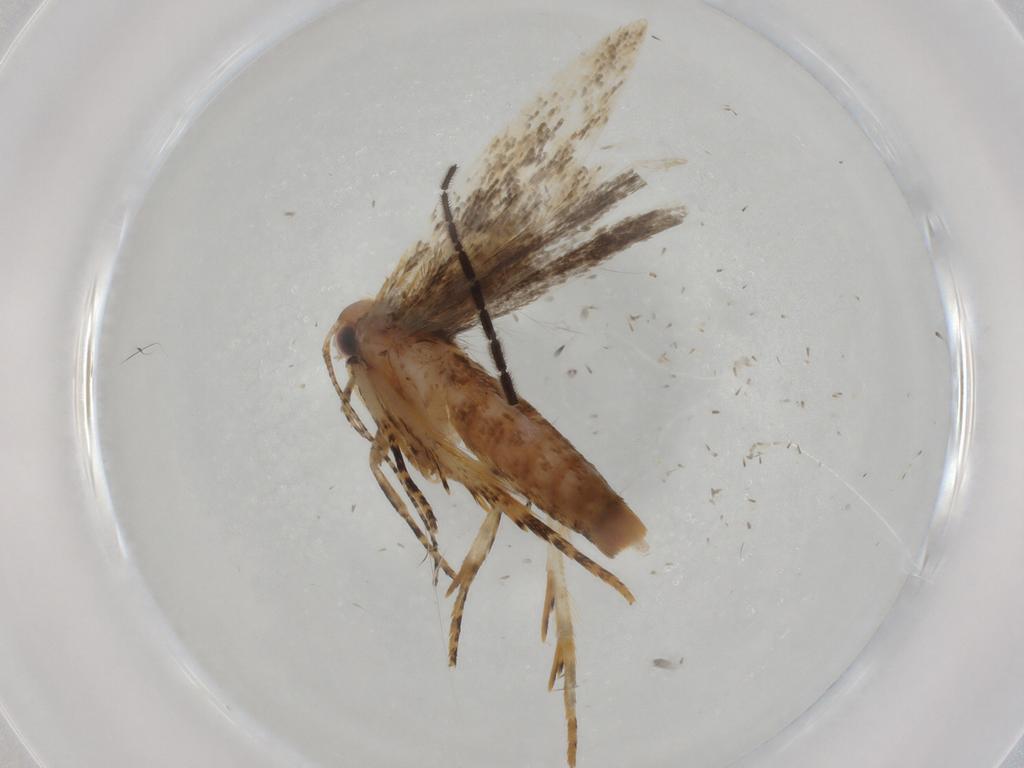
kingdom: Animalia
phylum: Arthropoda
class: Insecta
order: Lepidoptera
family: Gelechiidae
